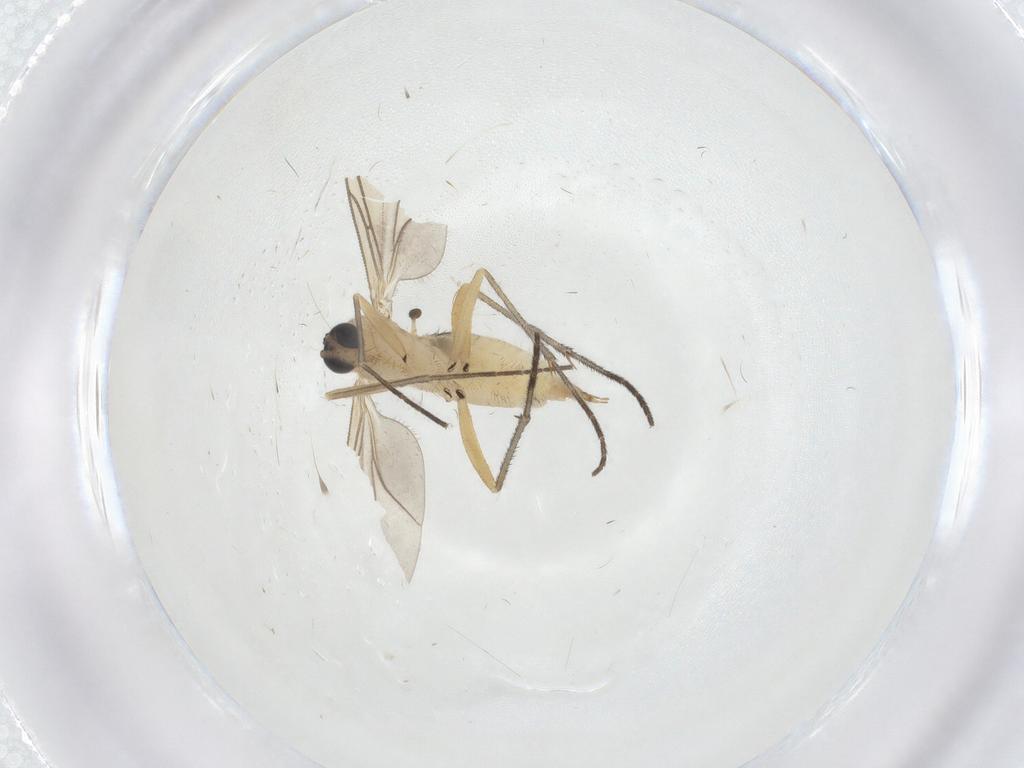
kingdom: Animalia
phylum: Arthropoda
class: Insecta
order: Diptera
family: Sciaridae
